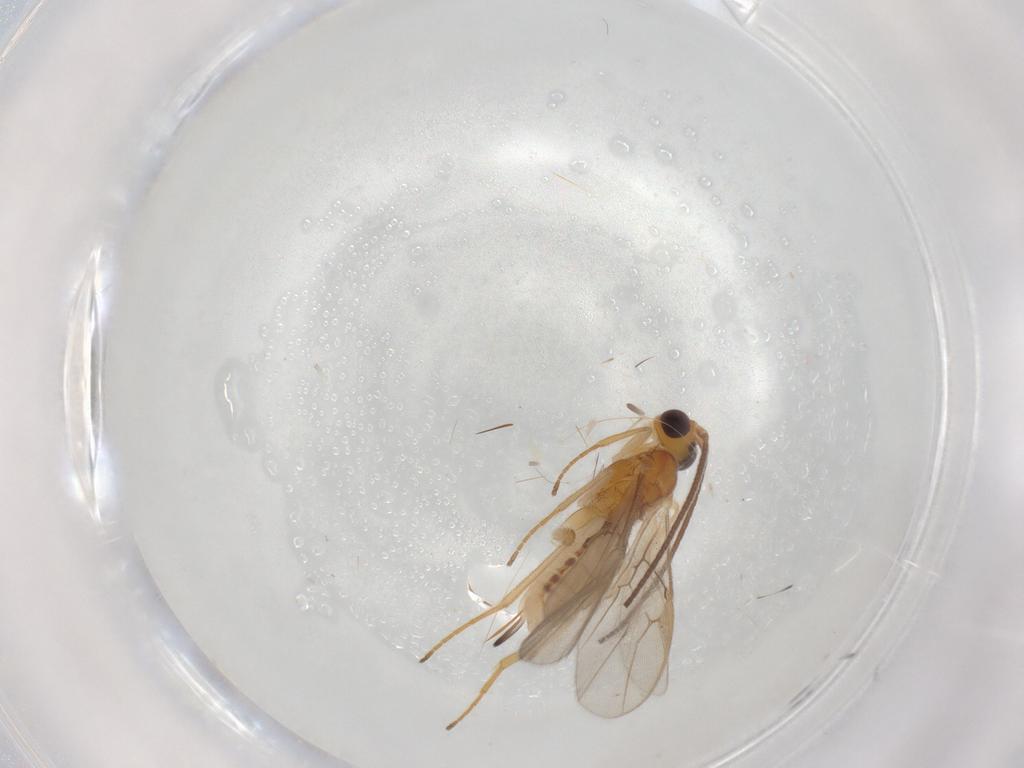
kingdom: Animalia
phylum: Arthropoda
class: Insecta
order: Hymenoptera
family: Braconidae
